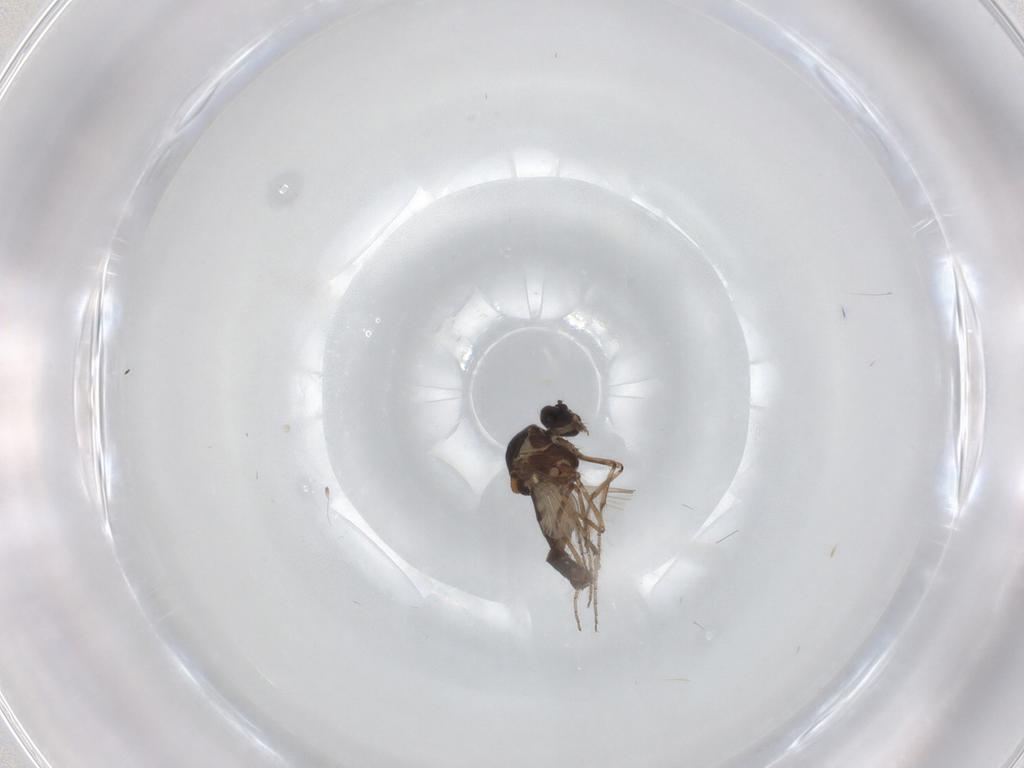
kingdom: Animalia
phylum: Arthropoda
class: Insecta
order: Diptera
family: Ceratopogonidae
